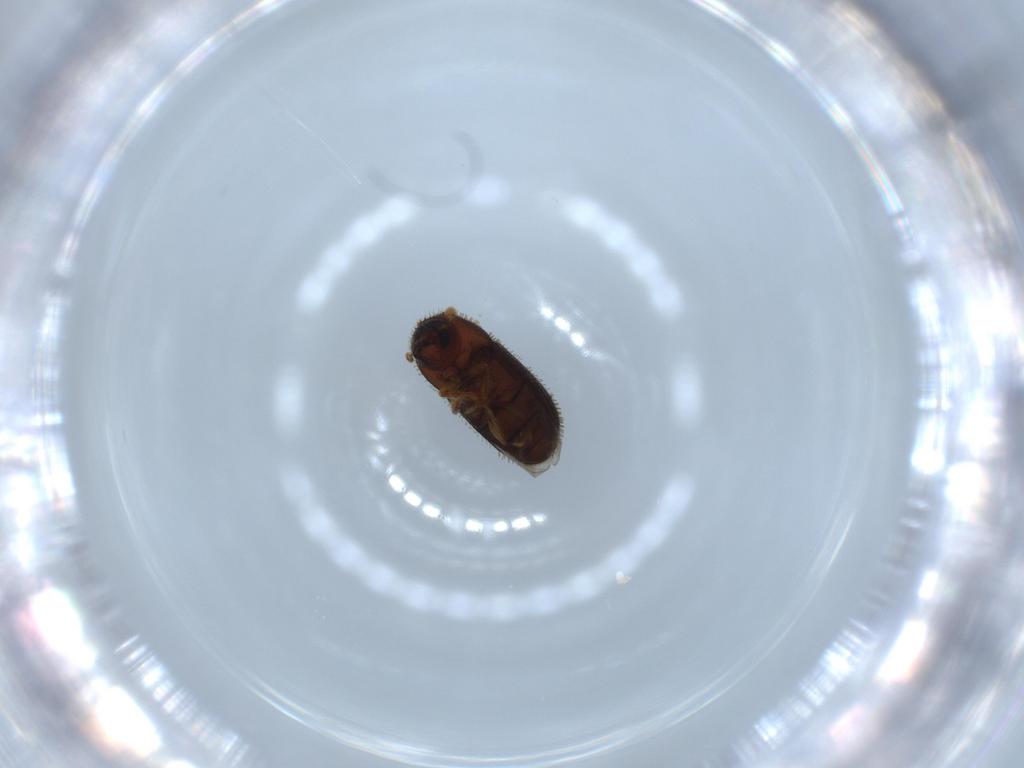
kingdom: Animalia
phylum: Arthropoda
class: Insecta
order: Coleoptera
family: Curculionidae
